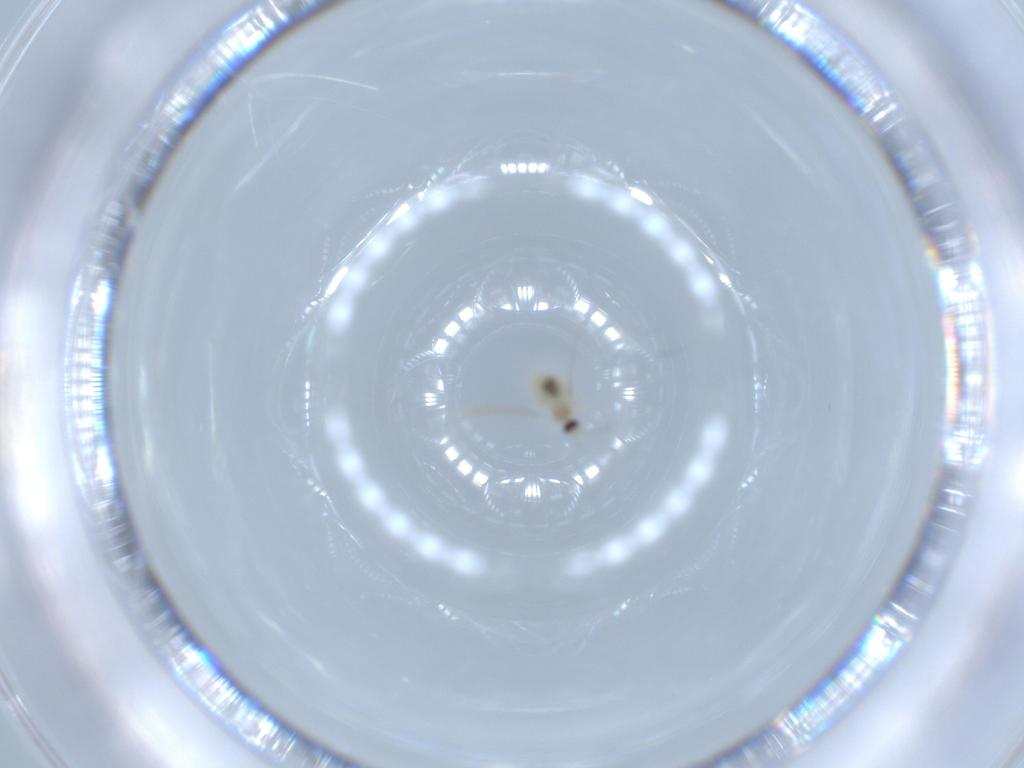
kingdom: Animalia
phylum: Arthropoda
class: Insecta
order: Diptera
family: Cecidomyiidae
